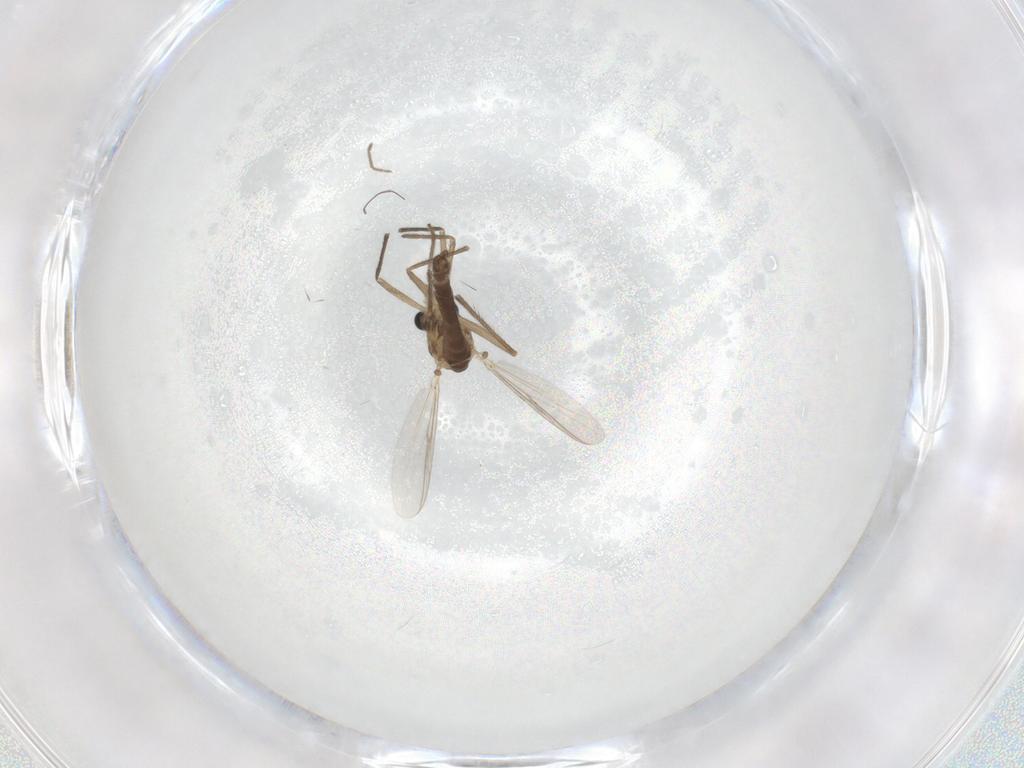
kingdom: Animalia
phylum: Arthropoda
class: Insecta
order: Diptera
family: Chironomidae
